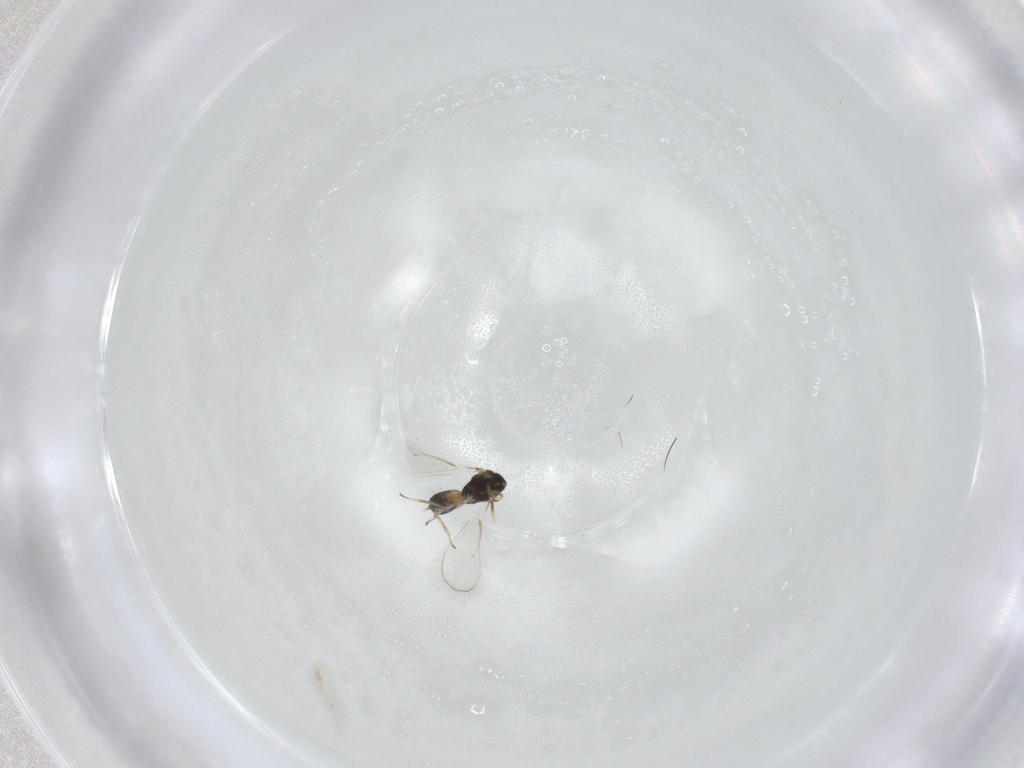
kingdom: Animalia
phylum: Arthropoda
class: Insecta
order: Hymenoptera
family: Eulophidae
